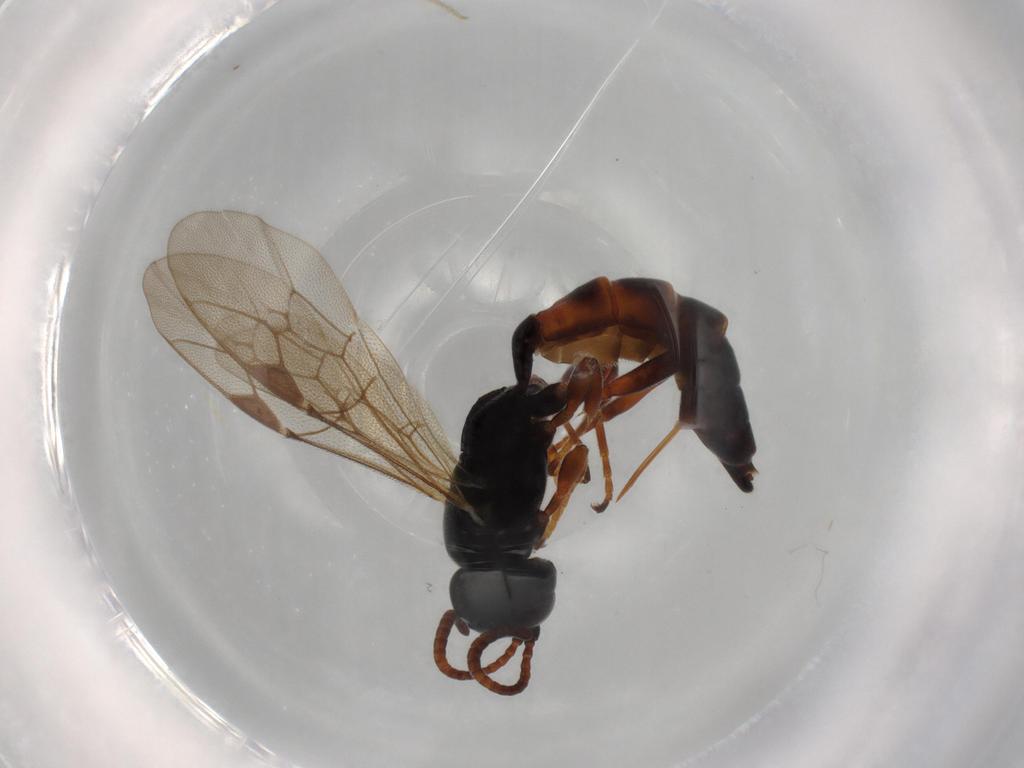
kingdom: Animalia
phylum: Arthropoda
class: Insecta
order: Hymenoptera
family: Ichneumonidae
